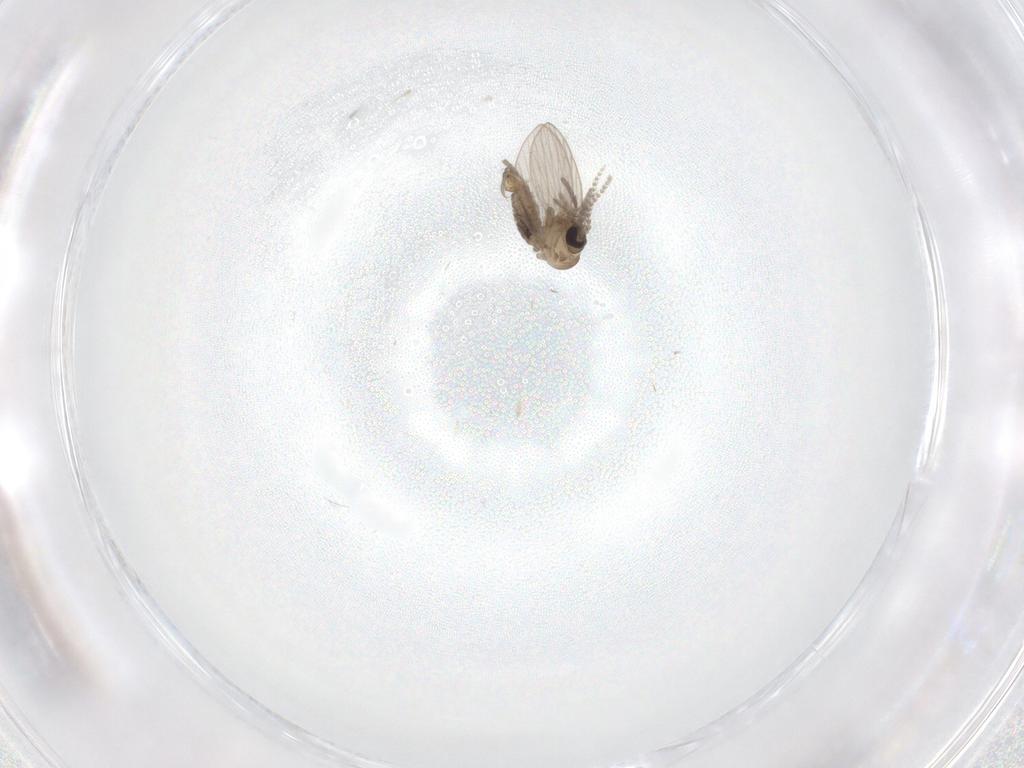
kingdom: Animalia
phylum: Arthropoda
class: Insecta
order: Diptera
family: Psychodidae
